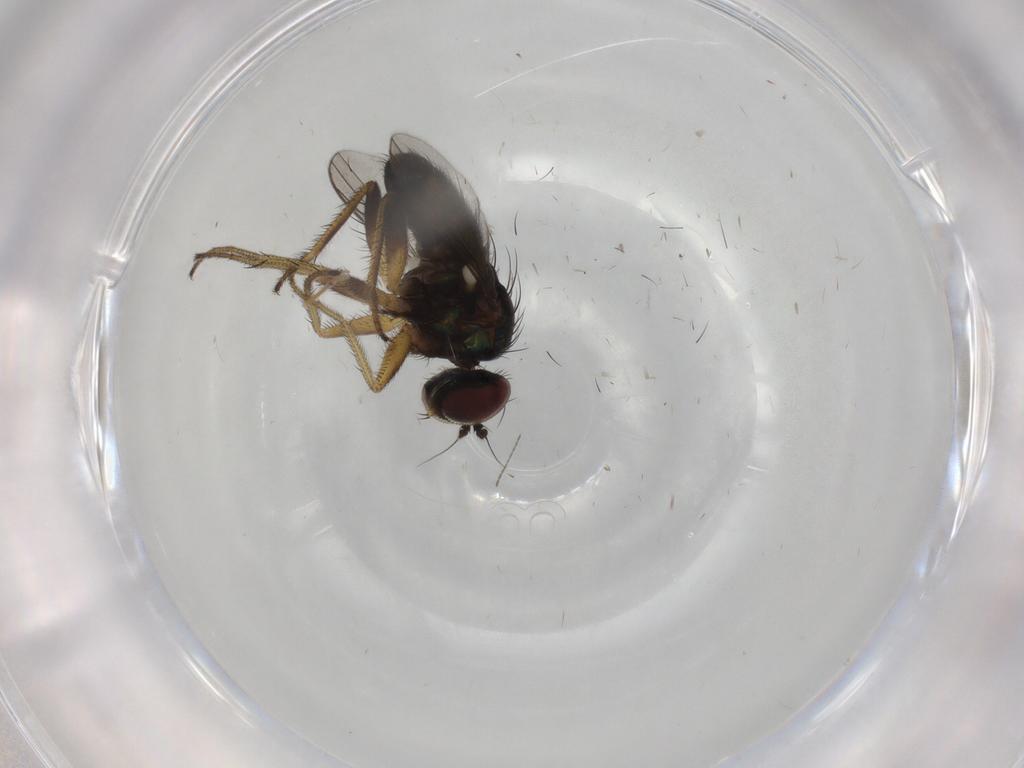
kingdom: Animalia
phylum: Arthropoda
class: Insecta
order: Diptera
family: Dolichopodidae
